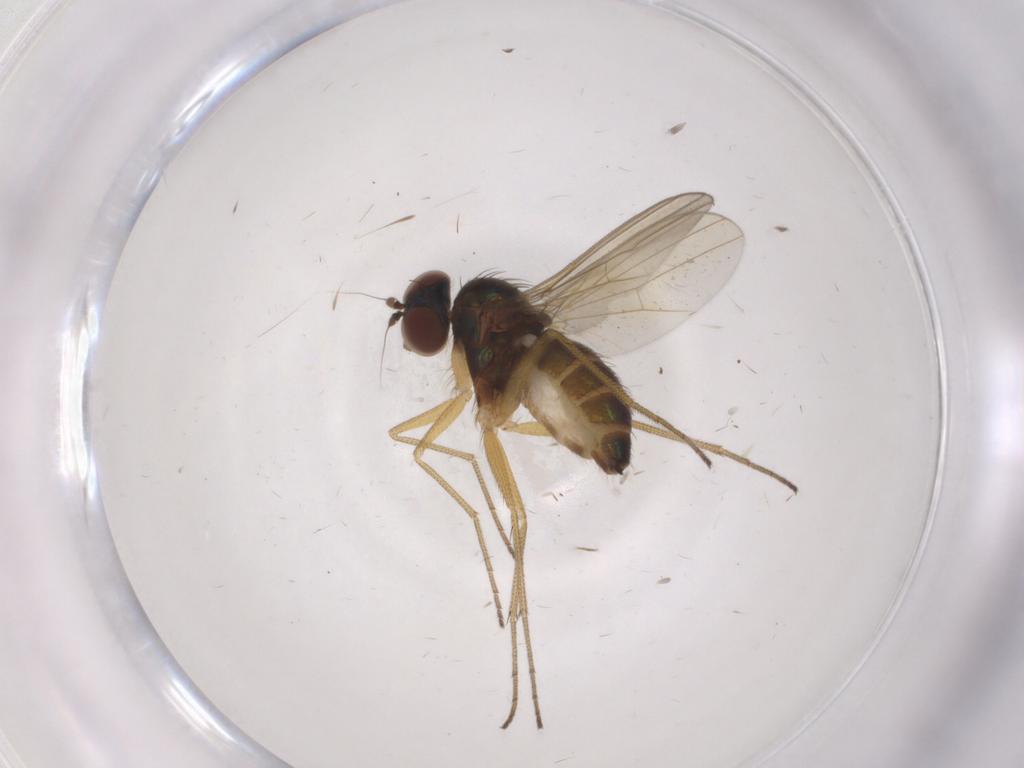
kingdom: Animalia
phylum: Arthropoda
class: Insecta
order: Diptera
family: Dolichopodidae
